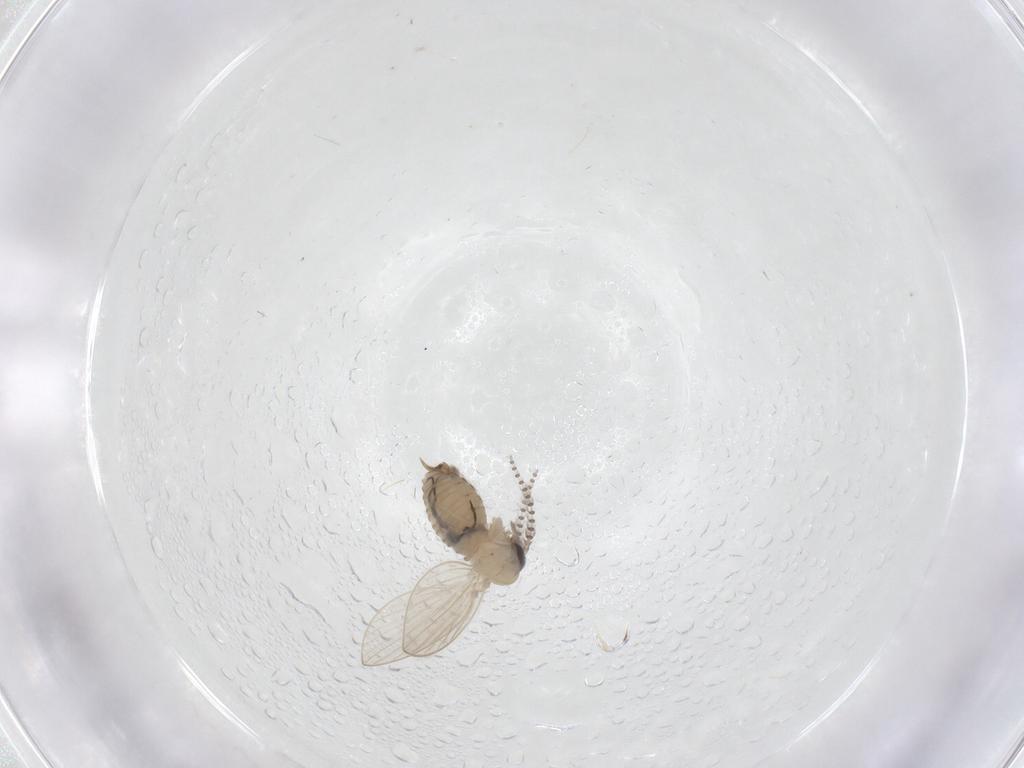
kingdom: Animalia
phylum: Arthropoda
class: Insecta
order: Diptera
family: Psychodidae
